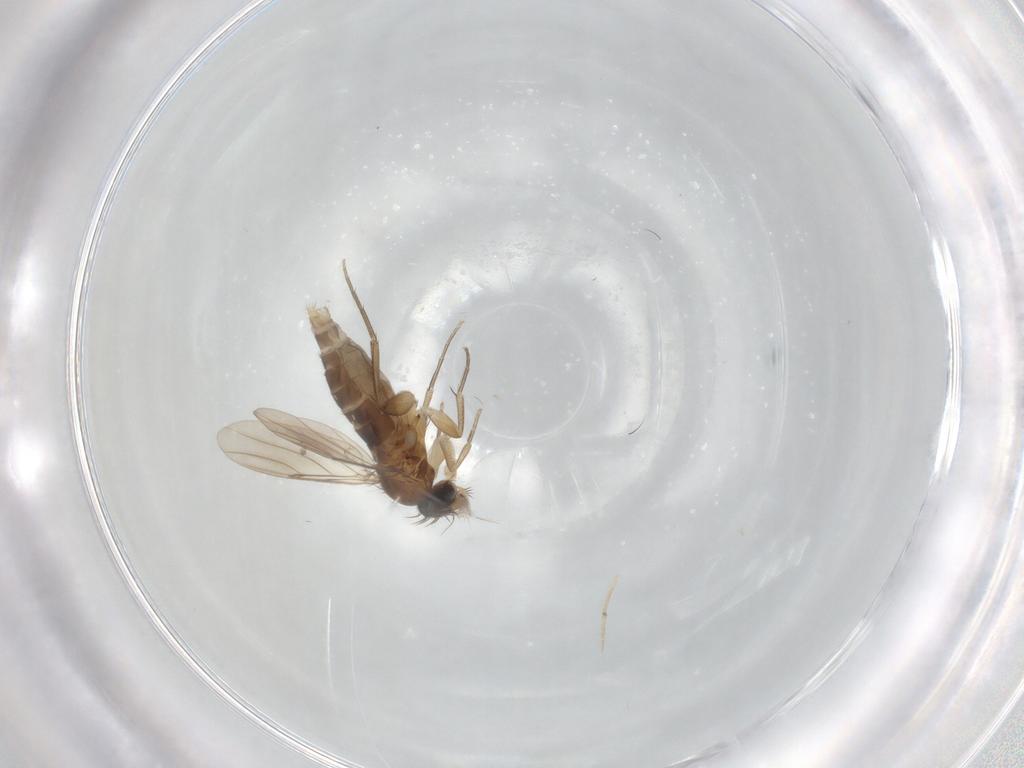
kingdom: Animalia
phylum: Arthropoda
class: Insecta
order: Diptera
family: Phoridae
